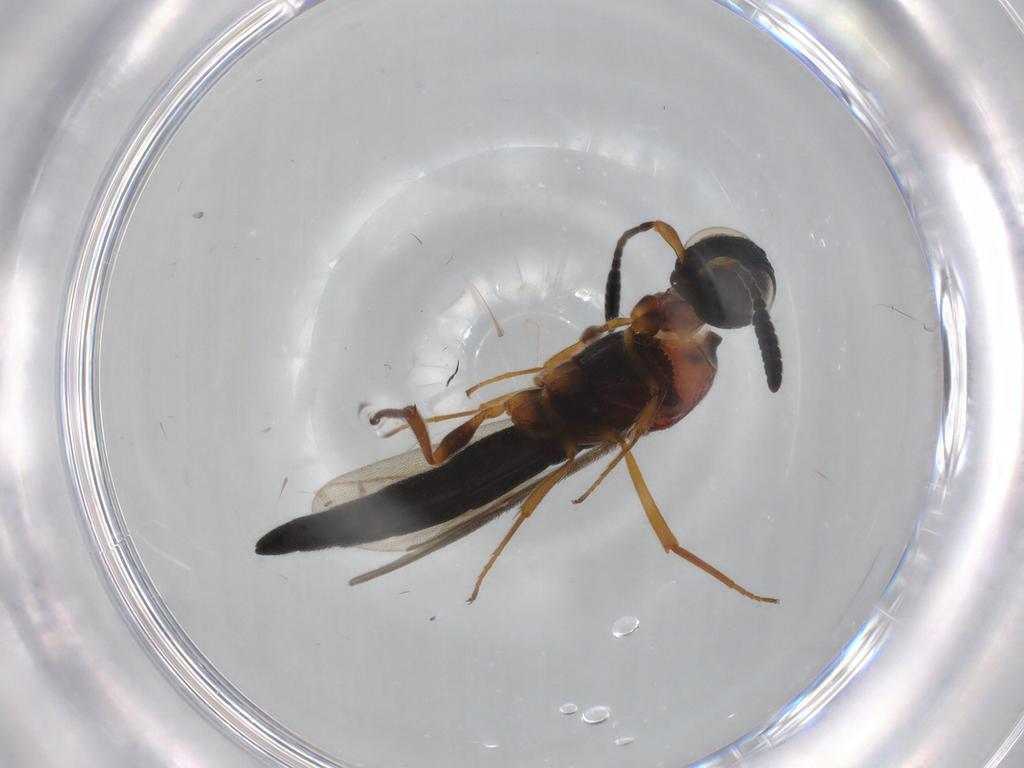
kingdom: Animalia
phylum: Arthropoda
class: Insecta
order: Hymenoptera
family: Scelionidae
